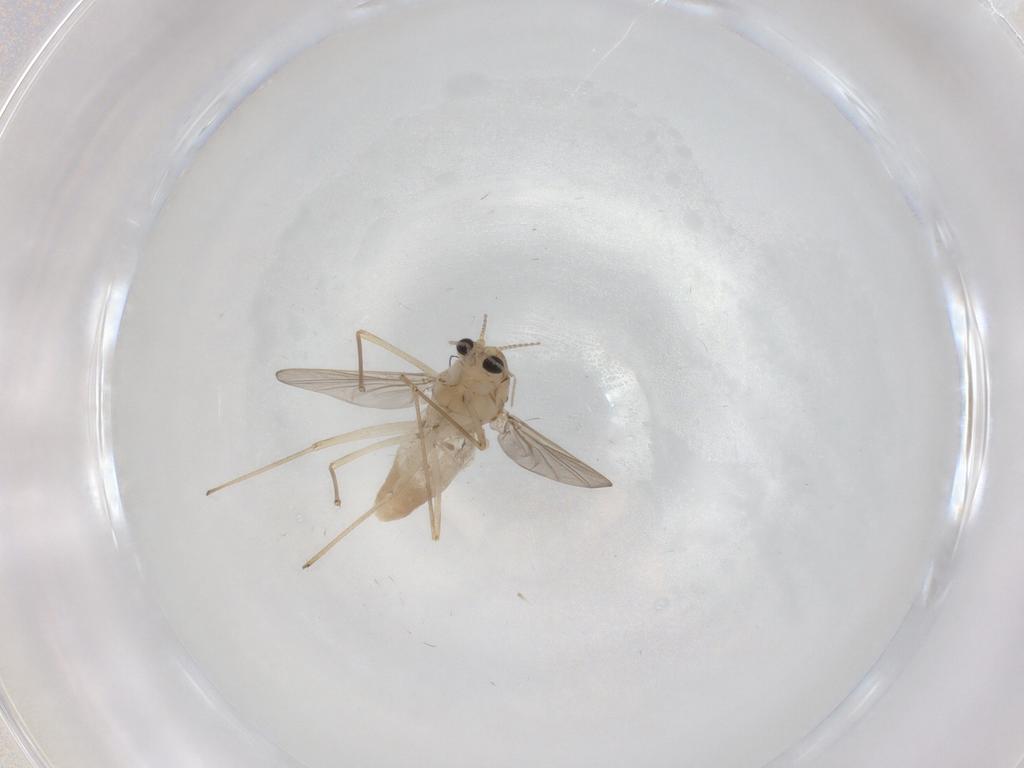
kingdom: Animalia
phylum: Arthropoda
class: Insecta
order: Diptera
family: Chironomidae
